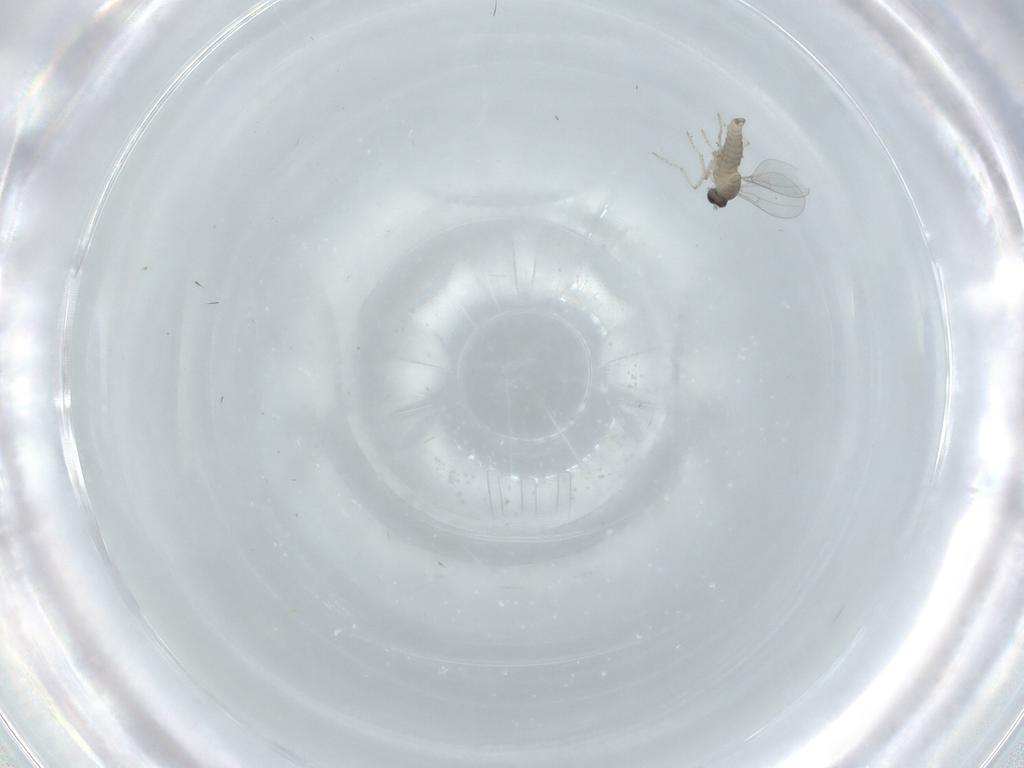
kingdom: Animalia
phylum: Arthropoda
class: Insecta
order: Diptera
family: Cecidomyiidae
